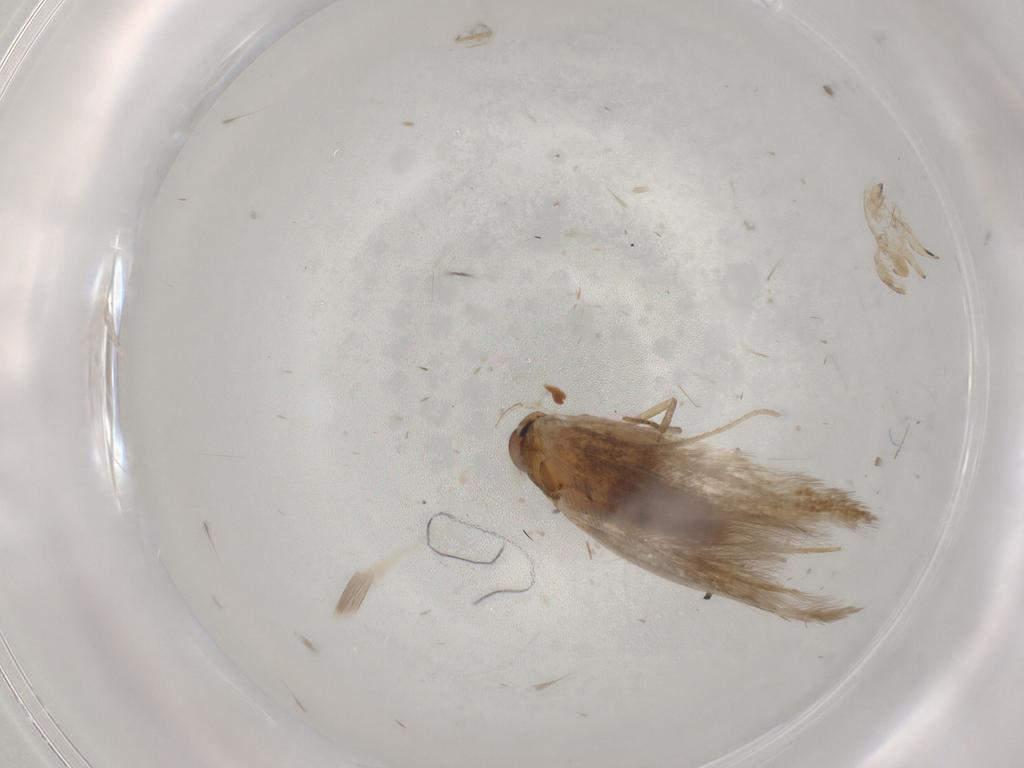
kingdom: Animalia
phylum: Arthropoda
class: Insecta
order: Lepidoptera
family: Cosmopterigidae
